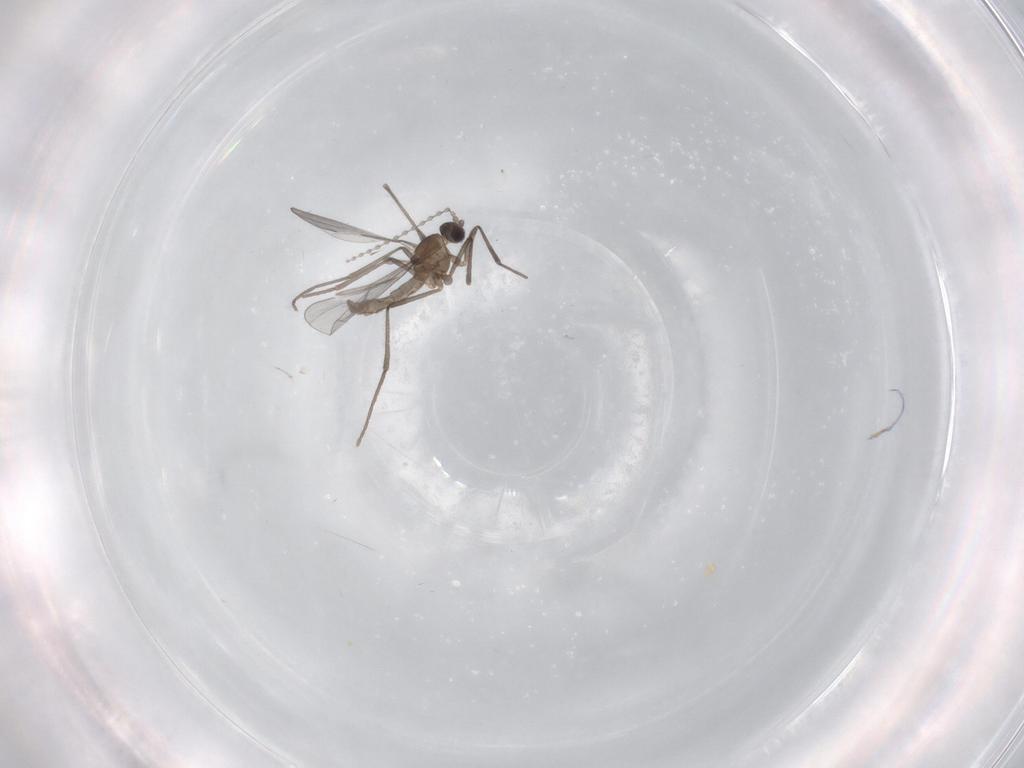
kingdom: Animalia
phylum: Arthropoda
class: Insecta
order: Diptera
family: Cecidomyiidae
